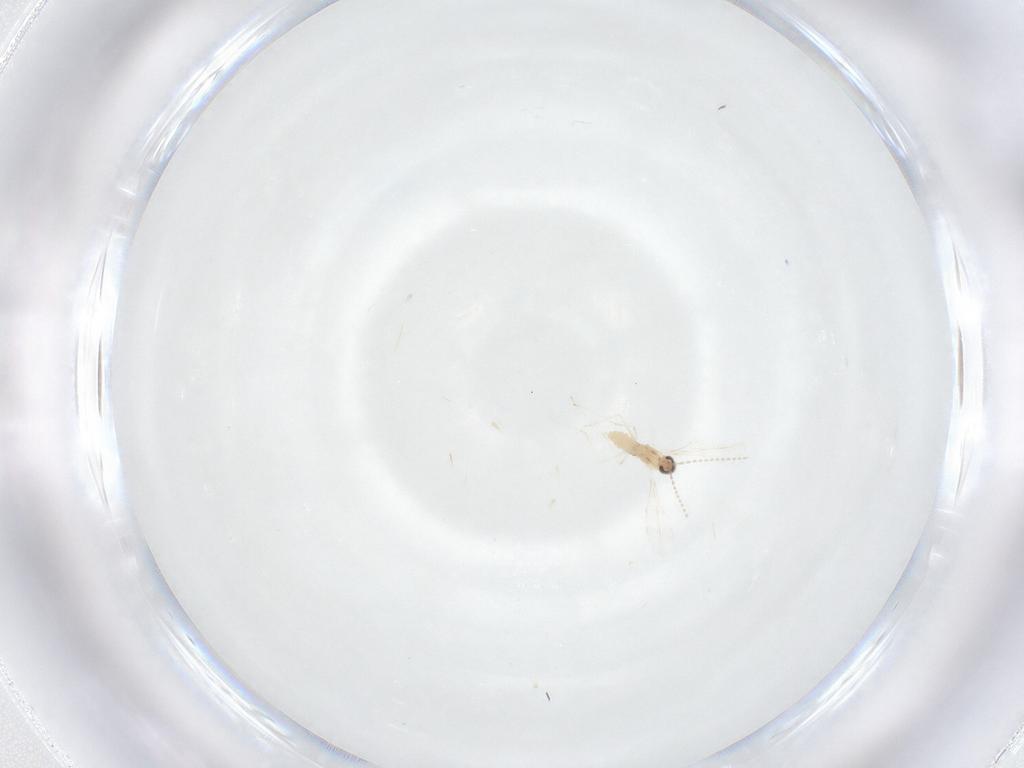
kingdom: Animalia
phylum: Arthropoda
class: Insecta
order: Diptera
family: Cecidomyiidae
